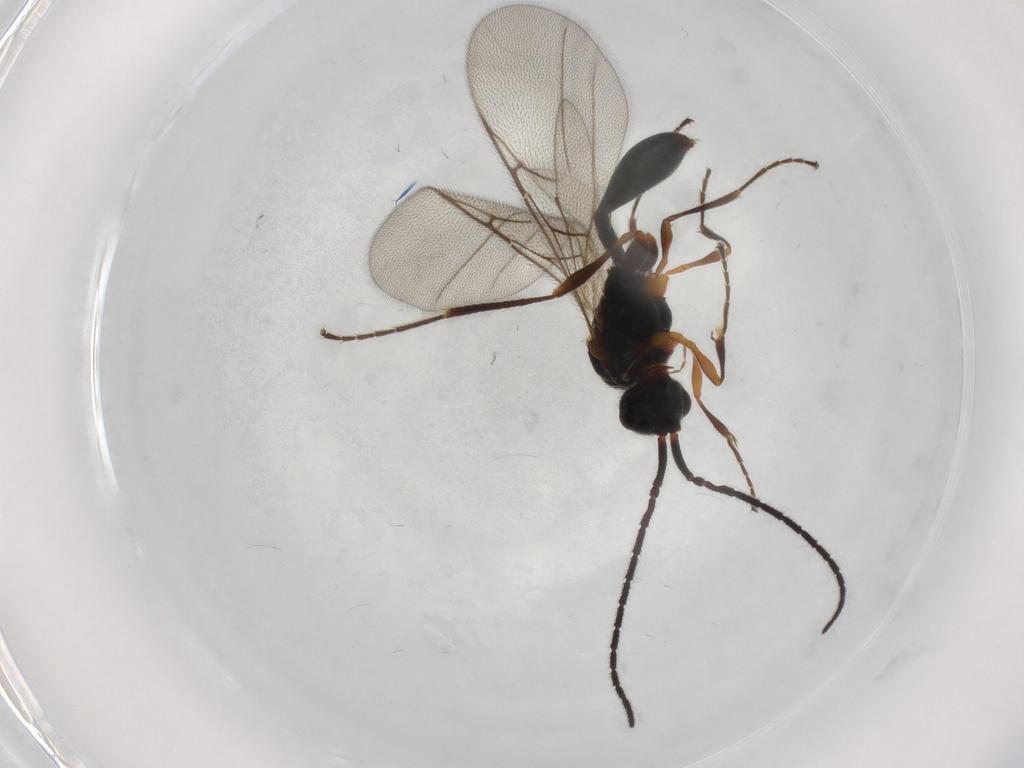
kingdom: Animalia
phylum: Arthropoda
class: Insecta
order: Hymenoptera
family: Diapriidae
